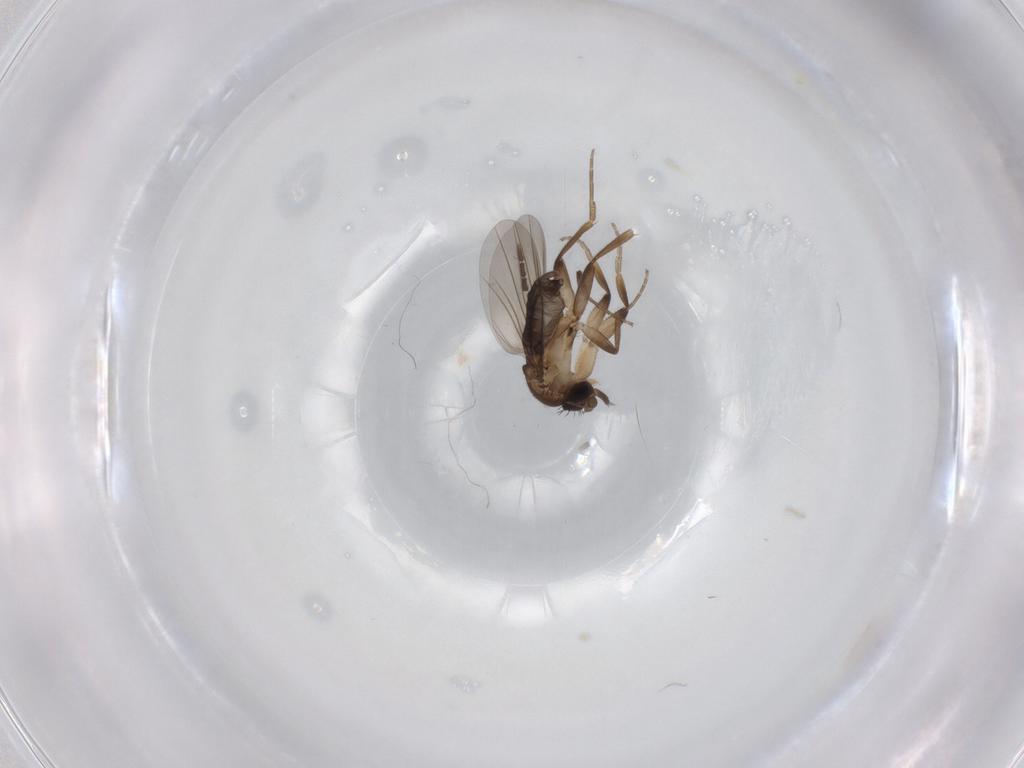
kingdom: Animalia
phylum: Arthropoda
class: Insecta
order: Diptera
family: Phoridae
